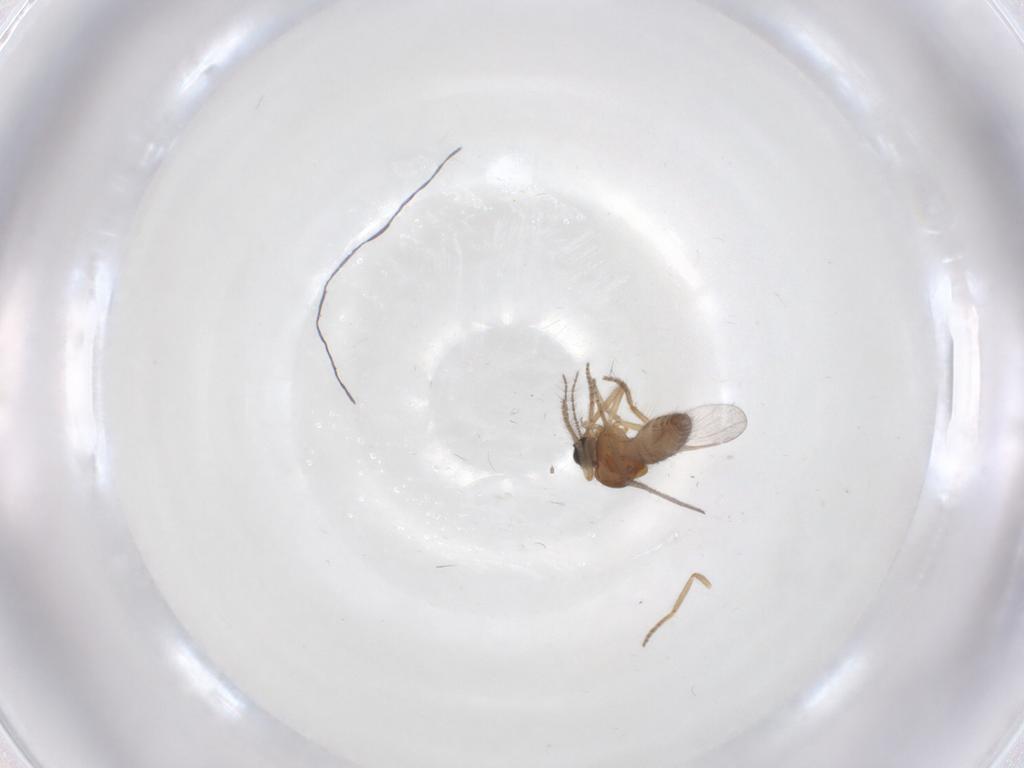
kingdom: Animalia
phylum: Arthropoda
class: Insecta
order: Diptera
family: Ceratopogonidae
